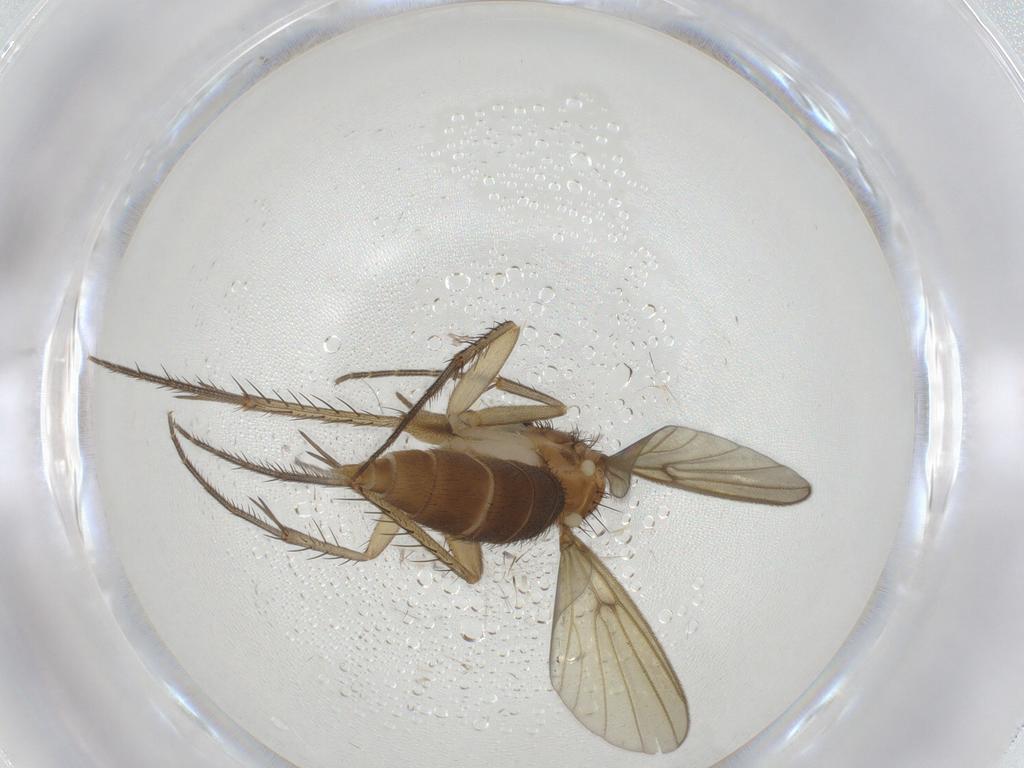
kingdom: Animalia
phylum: Arthropoda
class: Insecta
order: Diptera
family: Mycetophilidae
